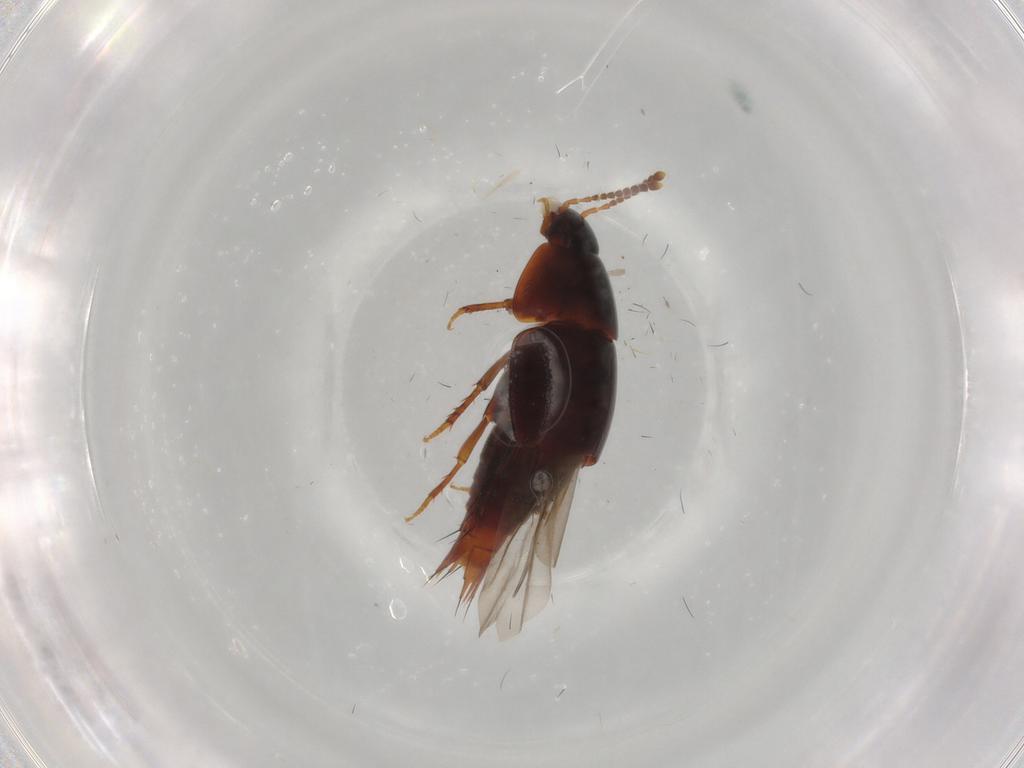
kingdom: Animalia
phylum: Arthropoda
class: Insecta
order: Coleoptera
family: Staphylinidae
